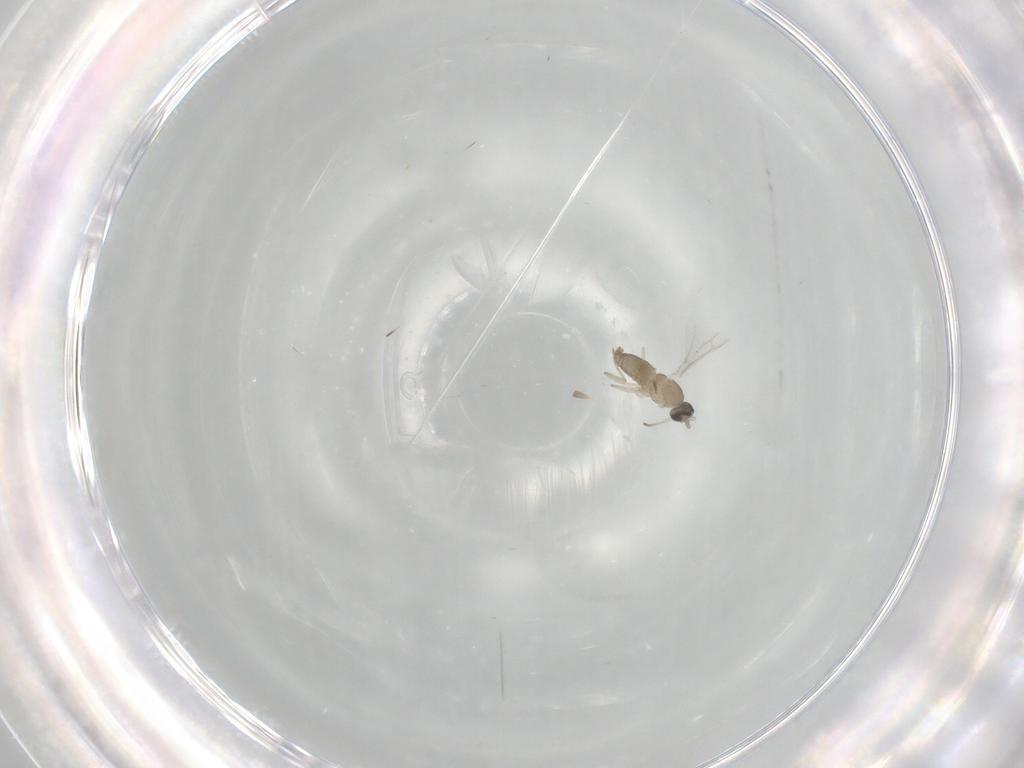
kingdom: Animalia
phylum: Arthropoda
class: Insecta
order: Diptera
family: Cecidomyiidae
